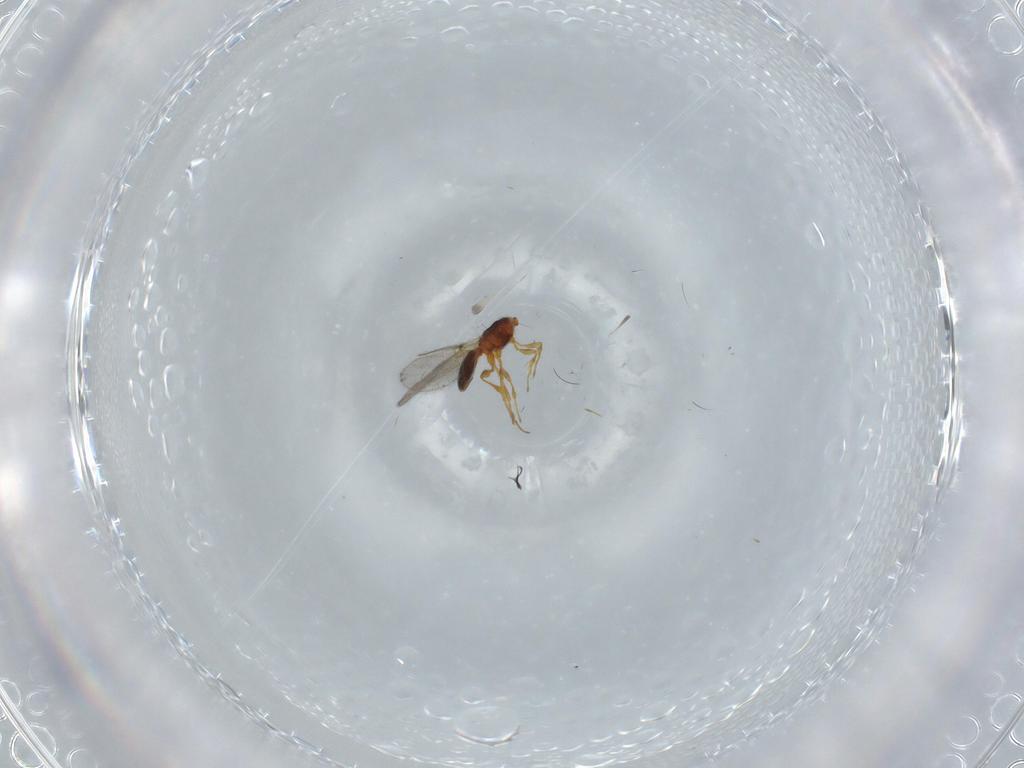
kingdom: Animalia
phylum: Arthropoda
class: Insecta
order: Hymenoptera
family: Diapriidae
